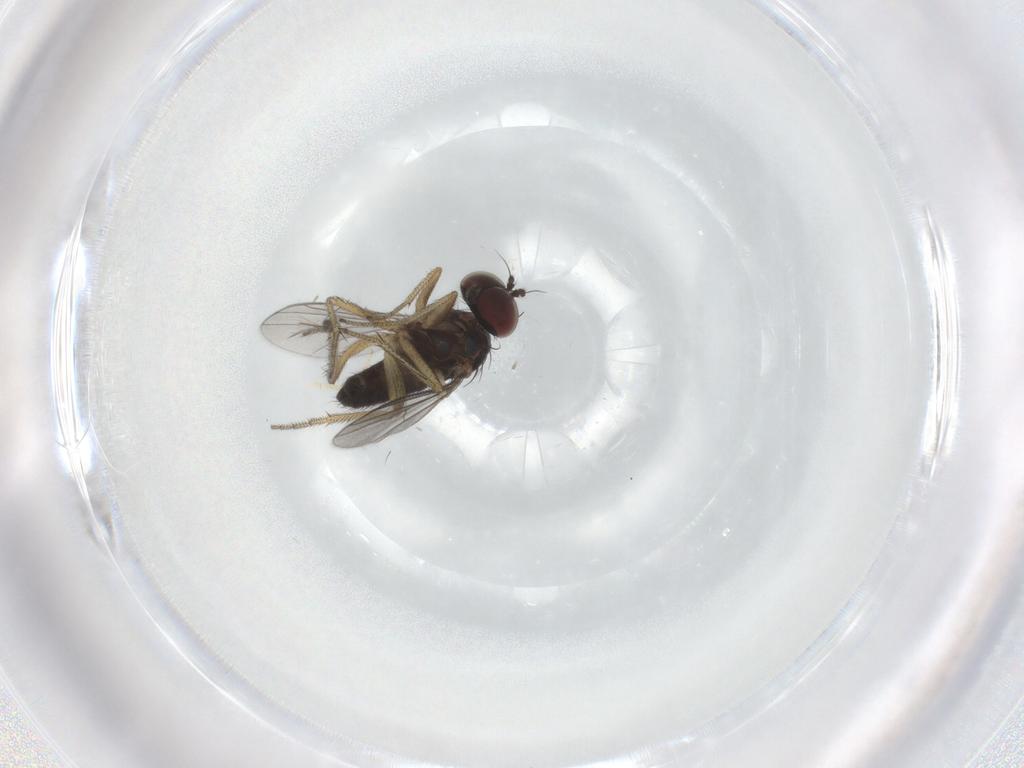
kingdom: Animalia
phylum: Arthropoda
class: Insecta
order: Diptera
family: Dolichopodidae
